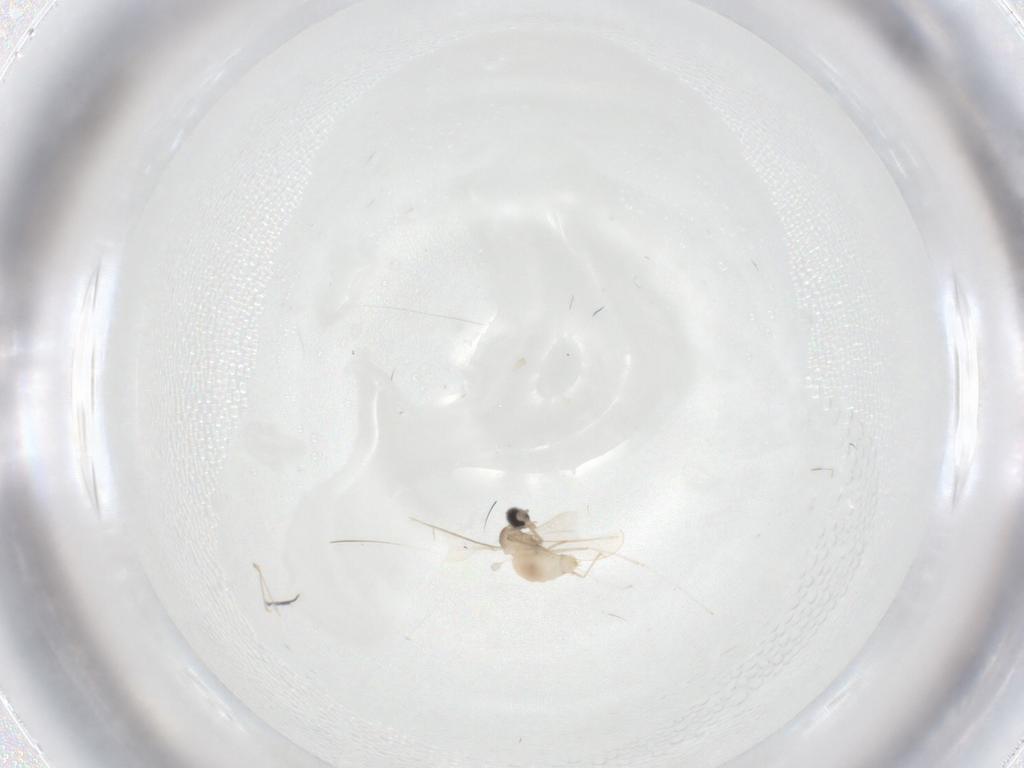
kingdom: Animalia
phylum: Arthropoda
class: Insecta
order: Diptera
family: Cecidomyiidae
